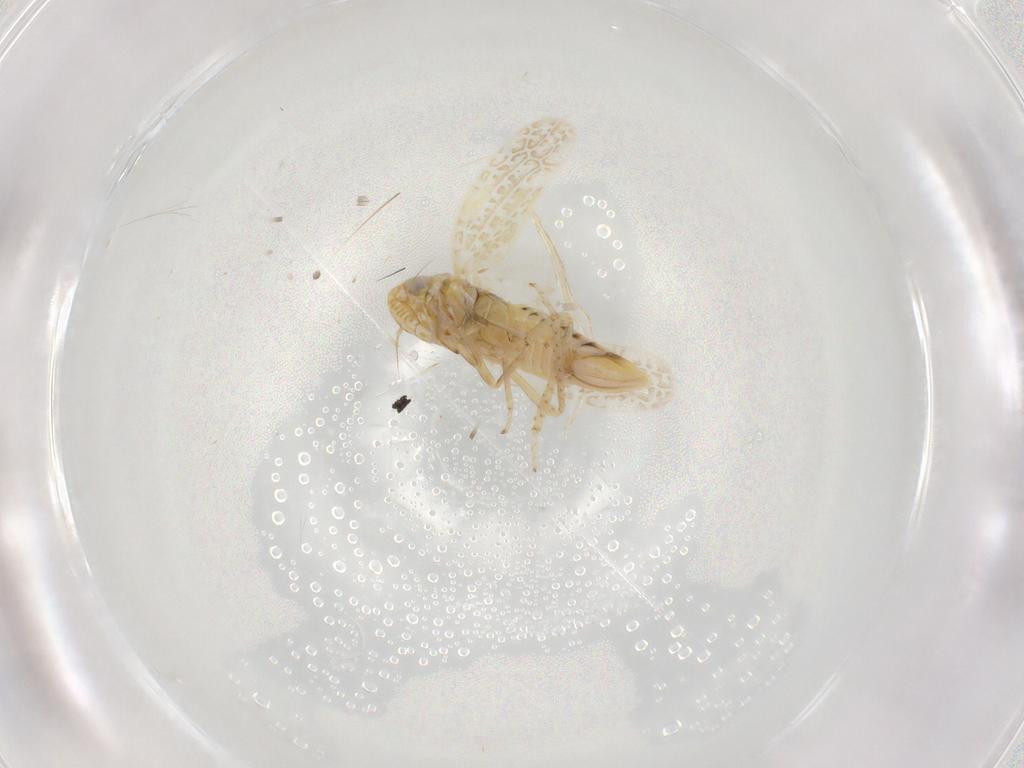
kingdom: Animalia
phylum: Arthropoda
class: Insecta
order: Hemiptera
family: Cicadellidae
